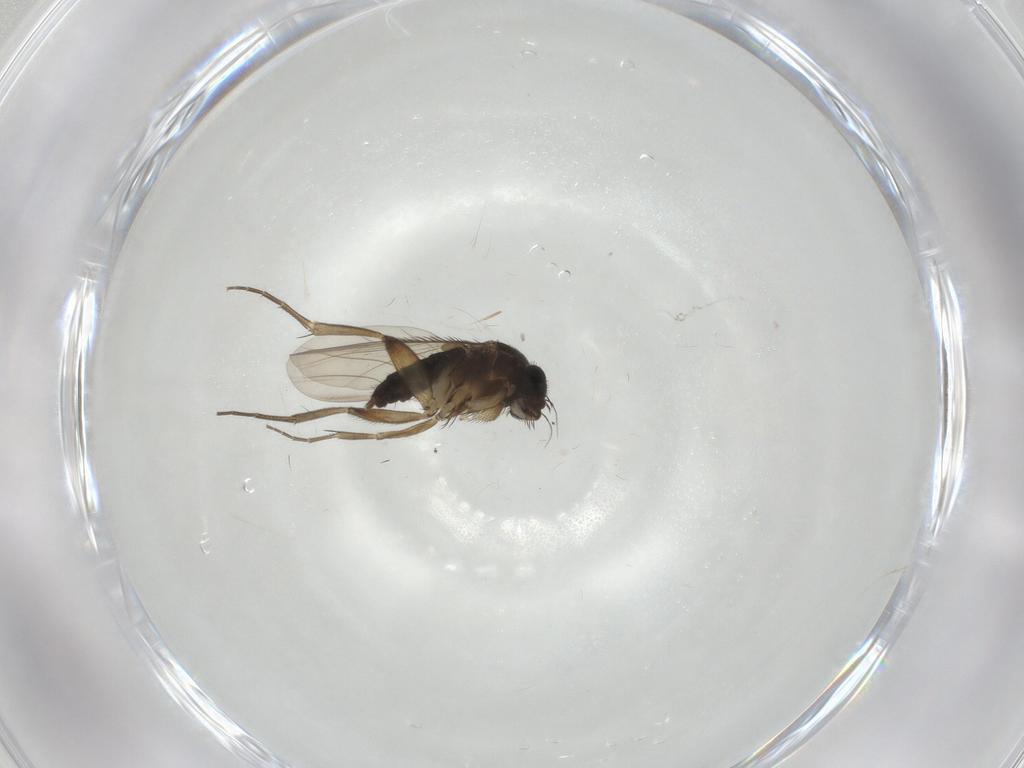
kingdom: Animalia
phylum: Arthropoda
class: Insecta
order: Diptera
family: Phoridae
